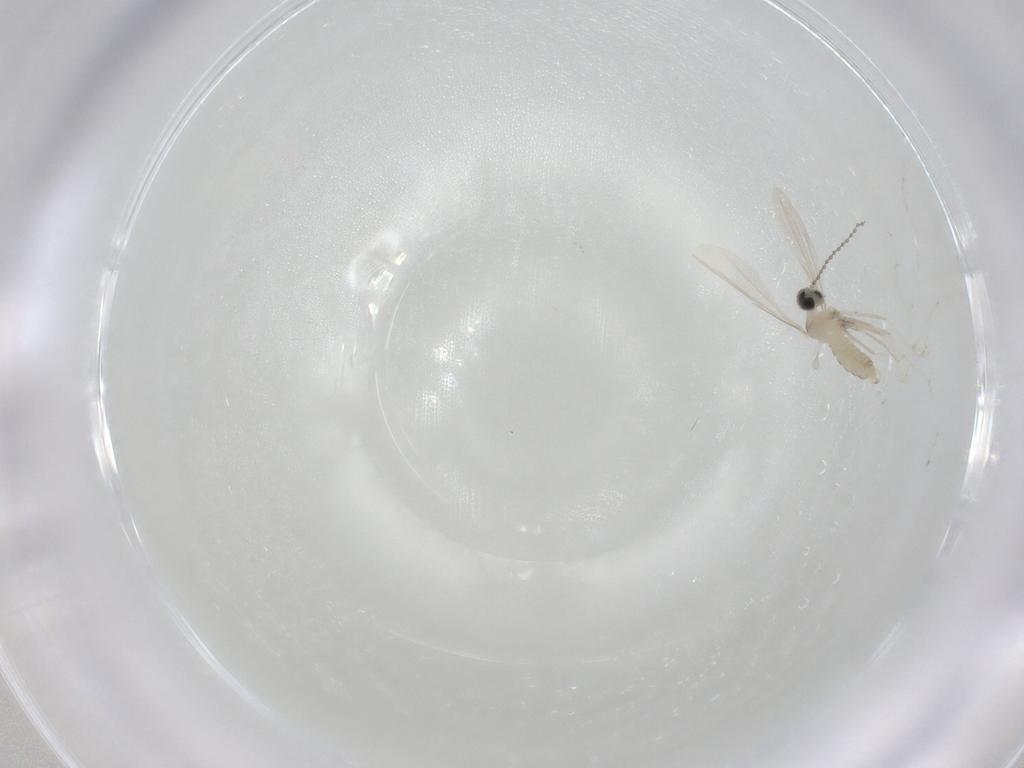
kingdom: Animalia
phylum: Arthropoda
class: Insecta
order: Diptera
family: Cecidomyiidae
